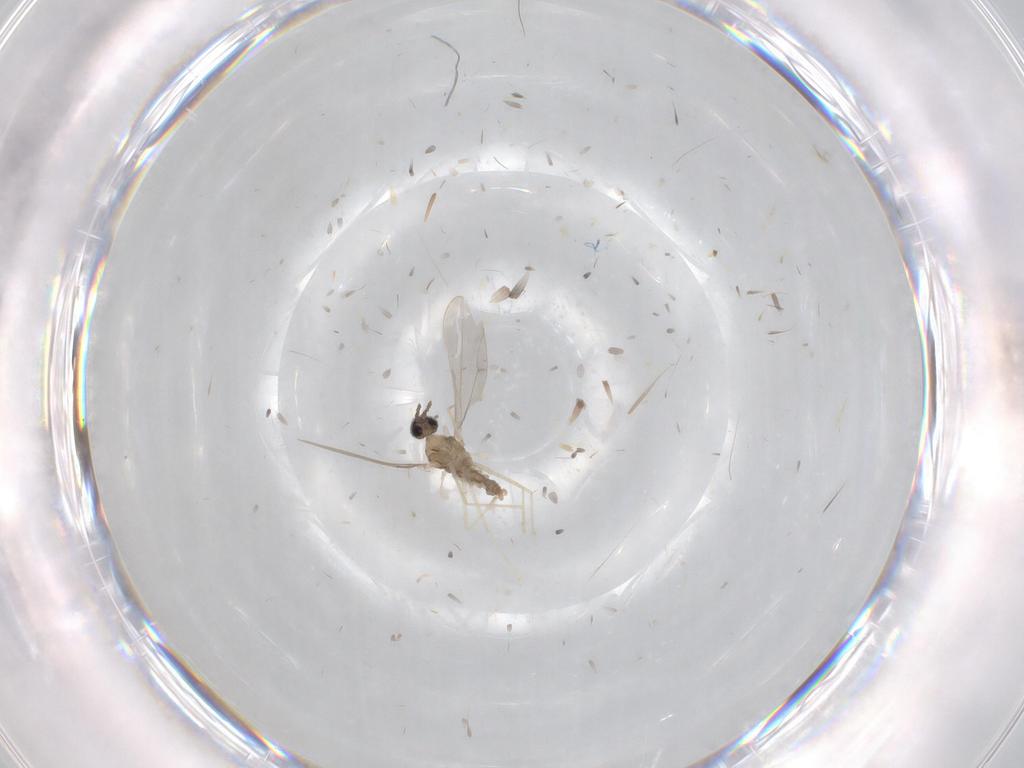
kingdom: Animalia
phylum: Arthropoda
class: Insecta
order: Diptera
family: Cecidomyiidae
